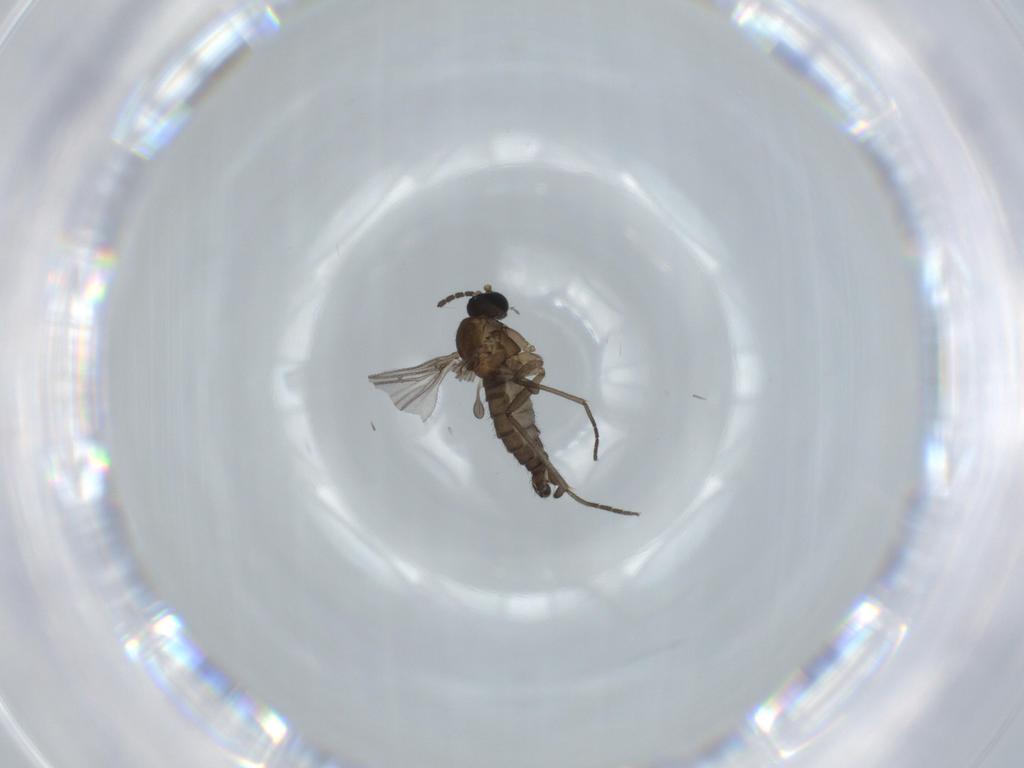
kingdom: Animalia
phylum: Arthropoda
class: Insecta
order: Diptera
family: Sciaridae
